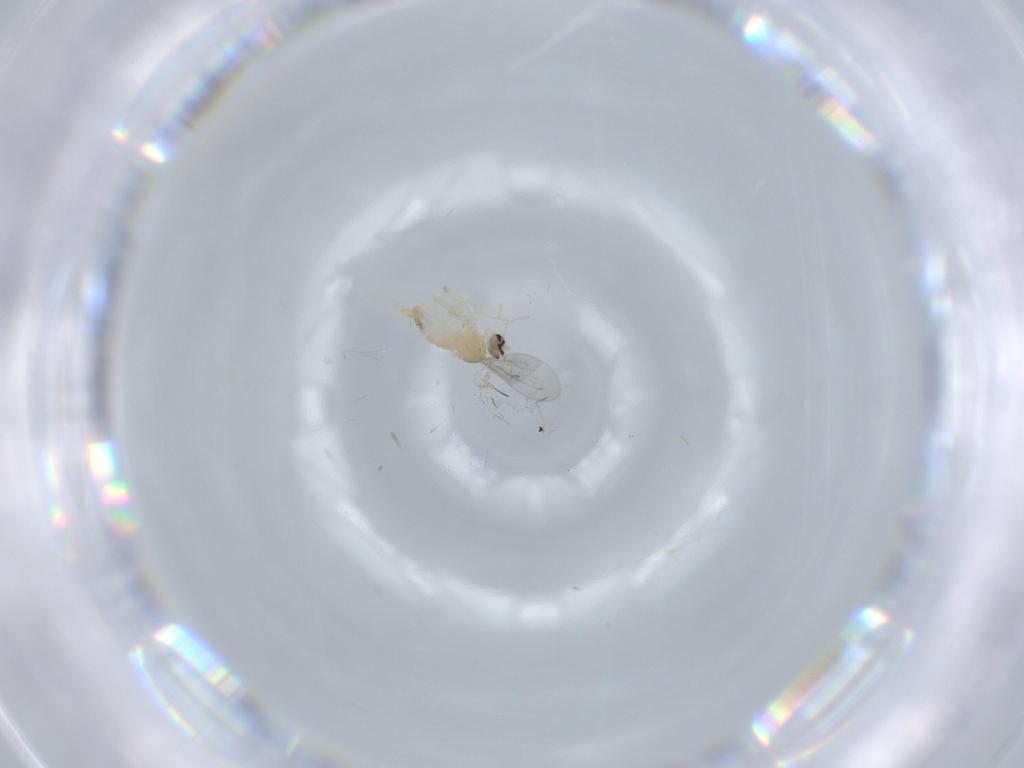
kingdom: Animalia
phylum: Arthropoda
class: Insecta
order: Diptera
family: Cecidomyiidae
